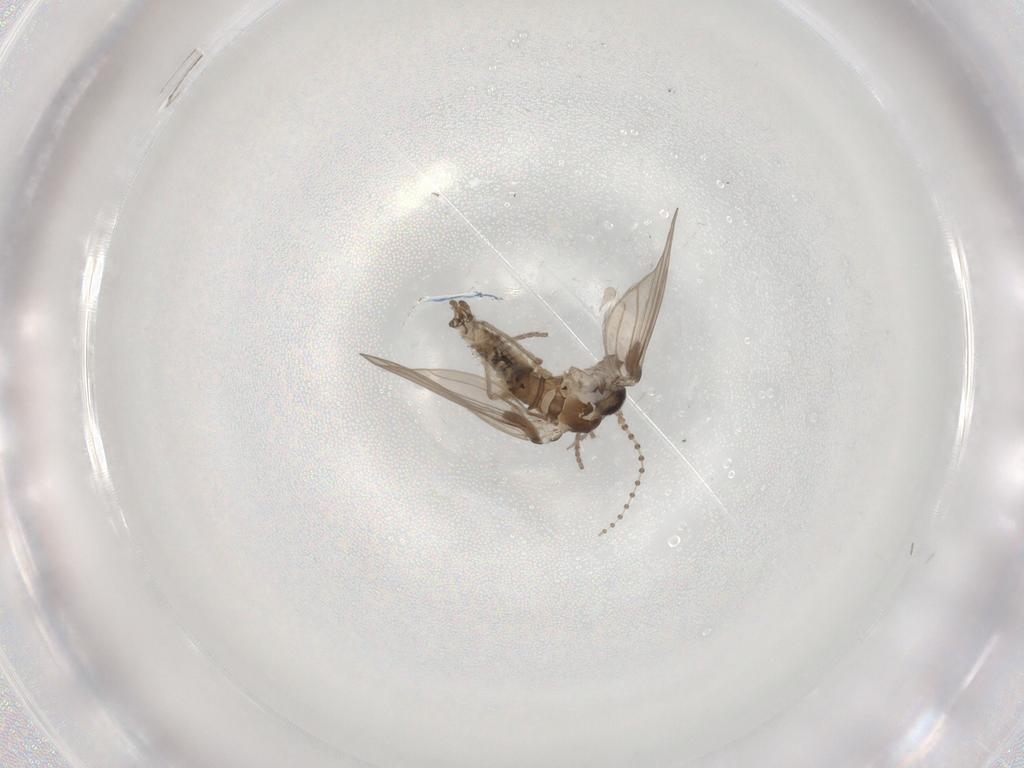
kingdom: Animalia
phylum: Arthropoda
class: Insecta
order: Diptera
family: Psychodidae
